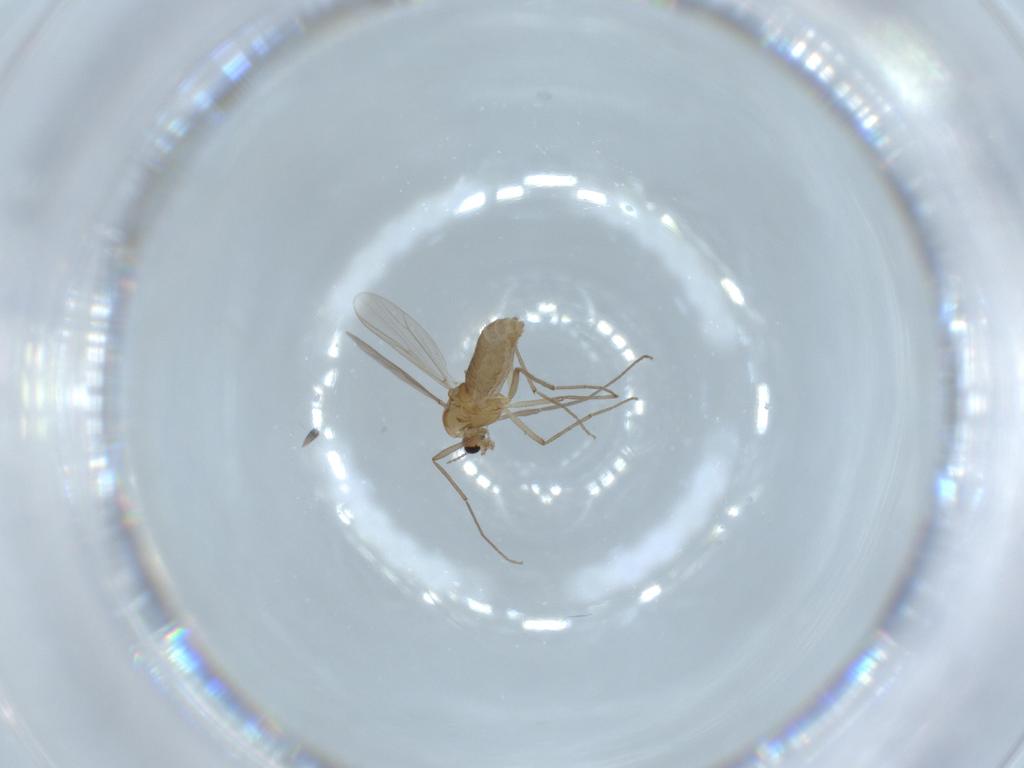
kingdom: Animalia
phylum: Arthropoda
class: Insecta
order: Diptera
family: Chironomidae
